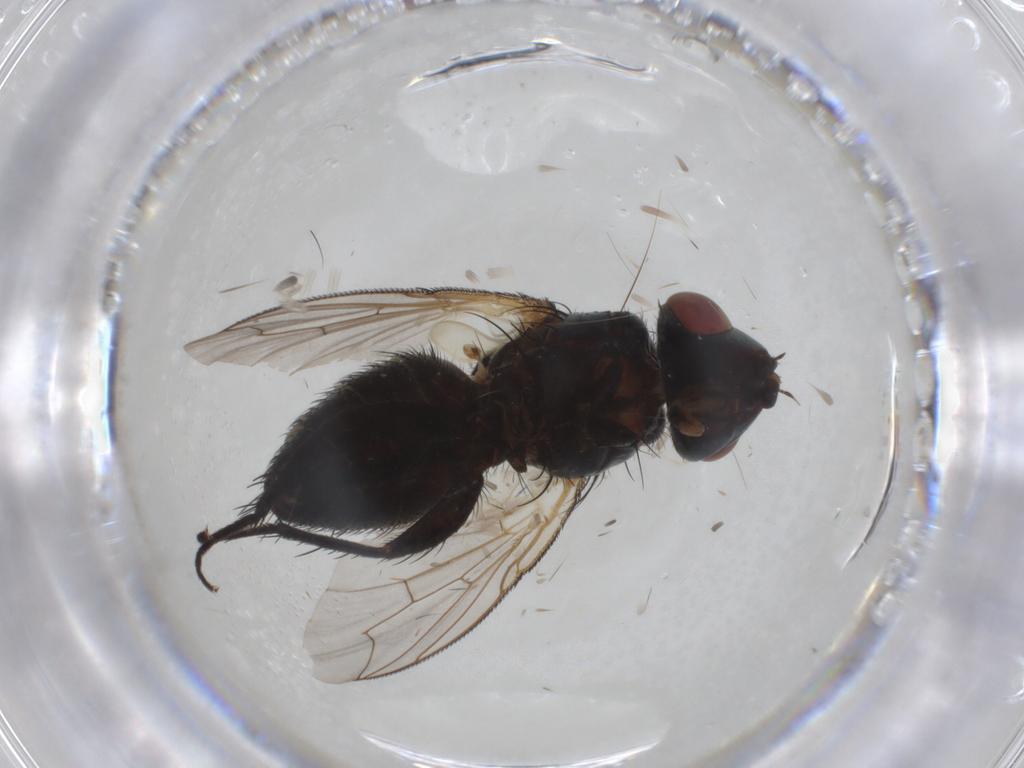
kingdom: Animalia
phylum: Arthropoda
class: Insecta
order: Diptera
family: Sarcophagidae
